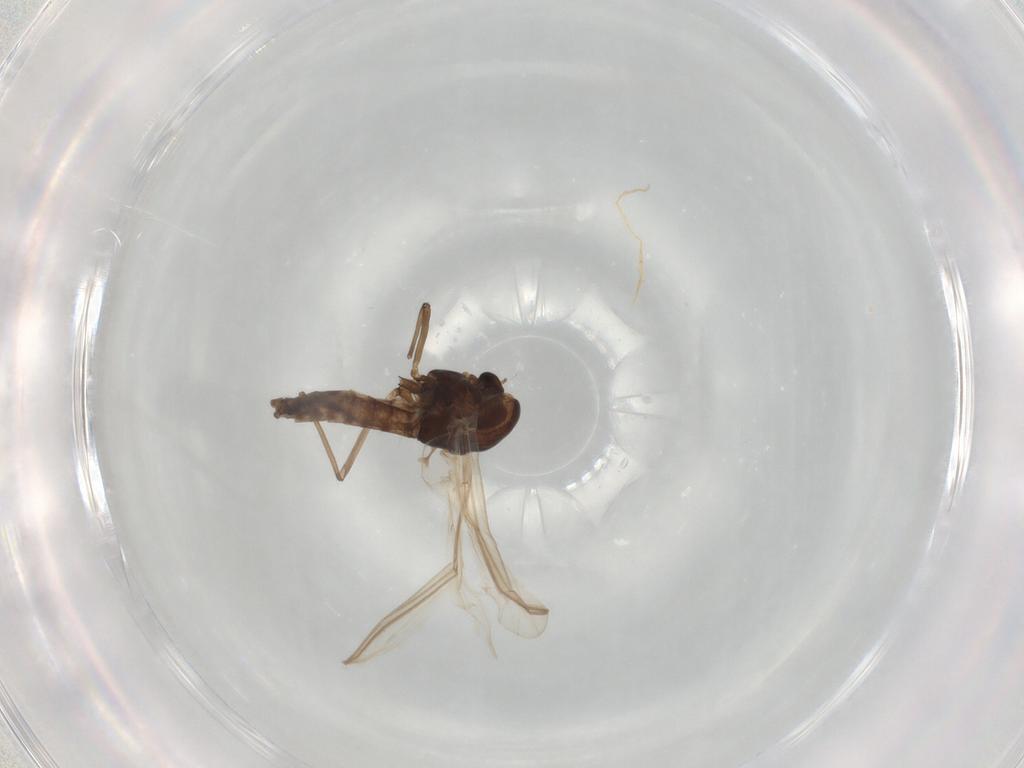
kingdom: Animalia
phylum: Arthropoda
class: Insecta
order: Diptera
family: Chironomidae
